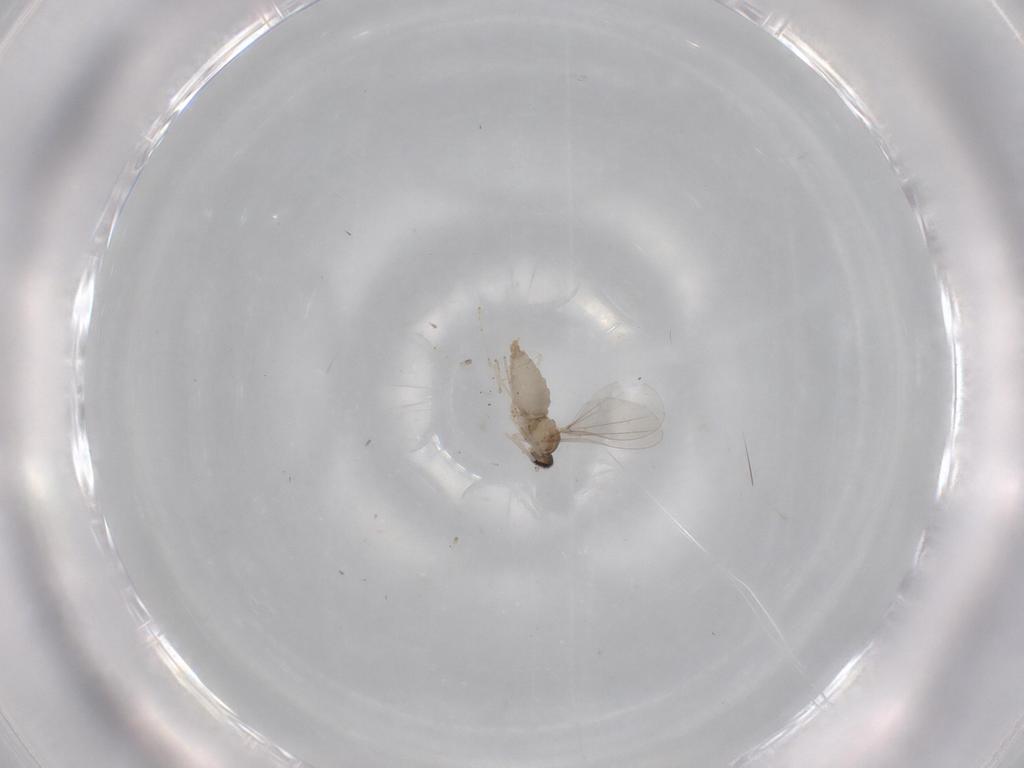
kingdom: Animalia
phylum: Arthropoda
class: Insecta
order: Diptera
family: Cecidomyiidae
